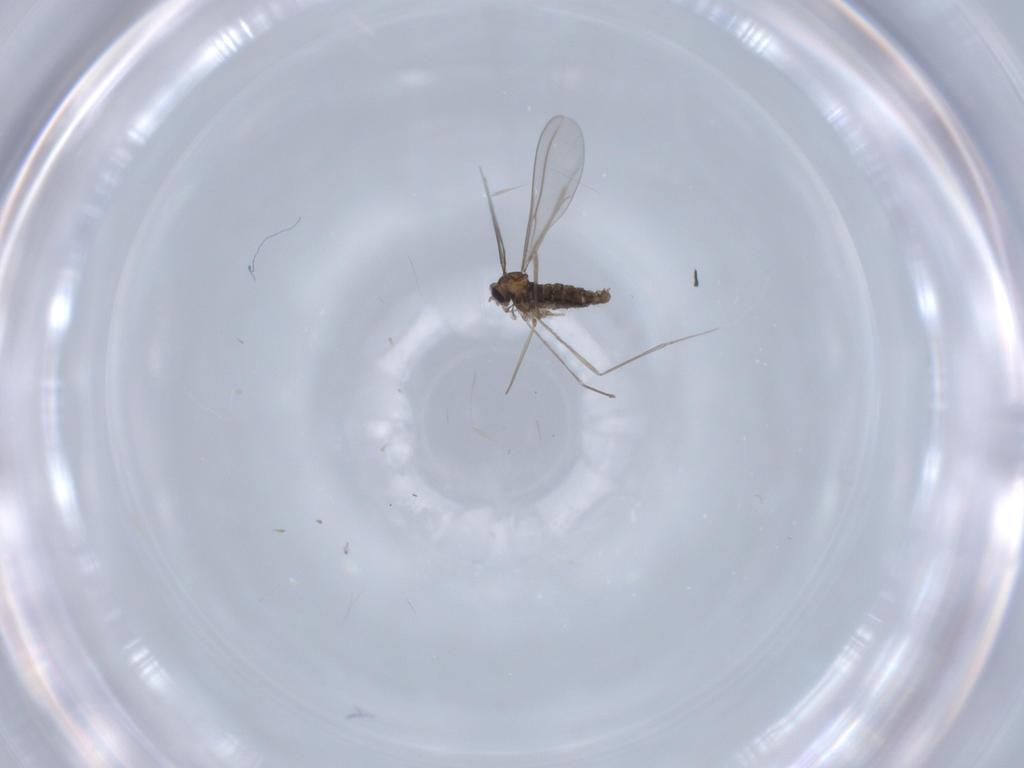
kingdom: Animalia
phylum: Arthropoda
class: Insecta
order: Diptera
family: Cecidomyiidae
